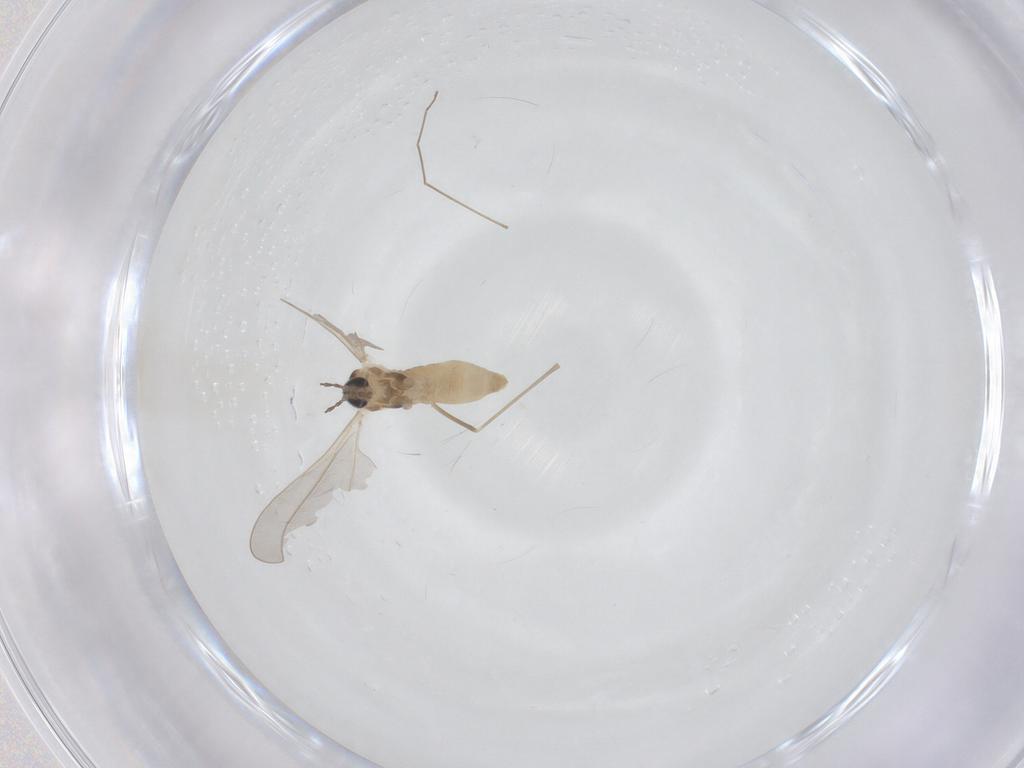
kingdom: Animalia
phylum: Arthropoda
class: Insecta
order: Diptera
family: Cecidomyiidae
